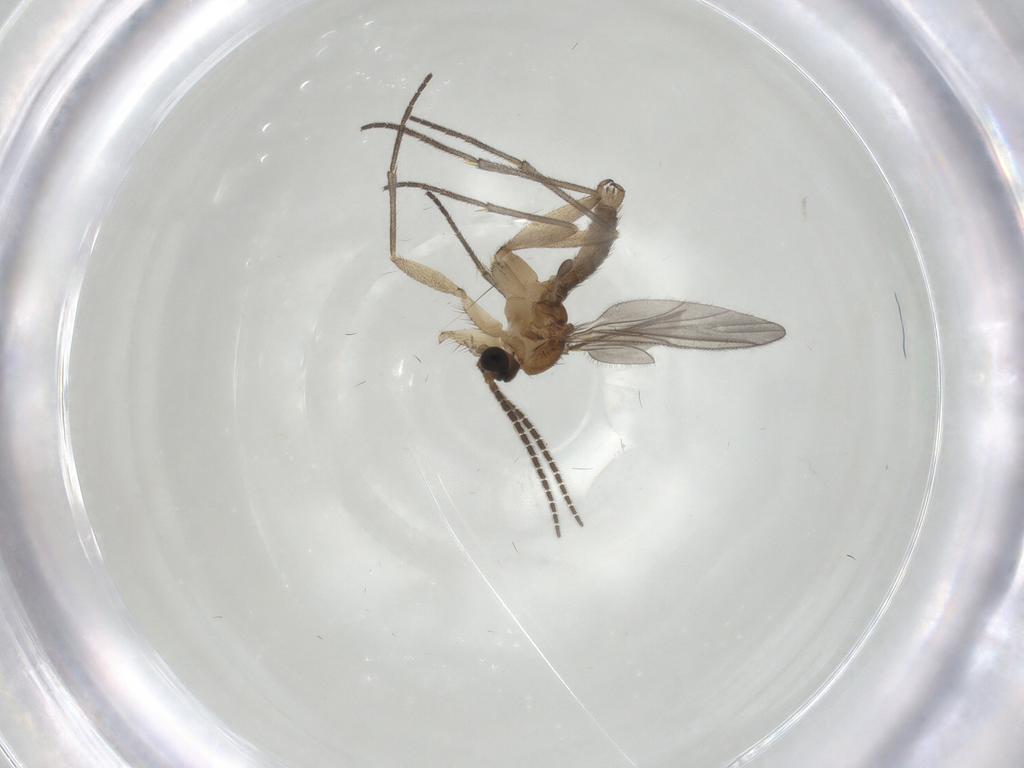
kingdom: Animalia
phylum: Arthropoda
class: Insecta
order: Diptera
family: Sciaridae
